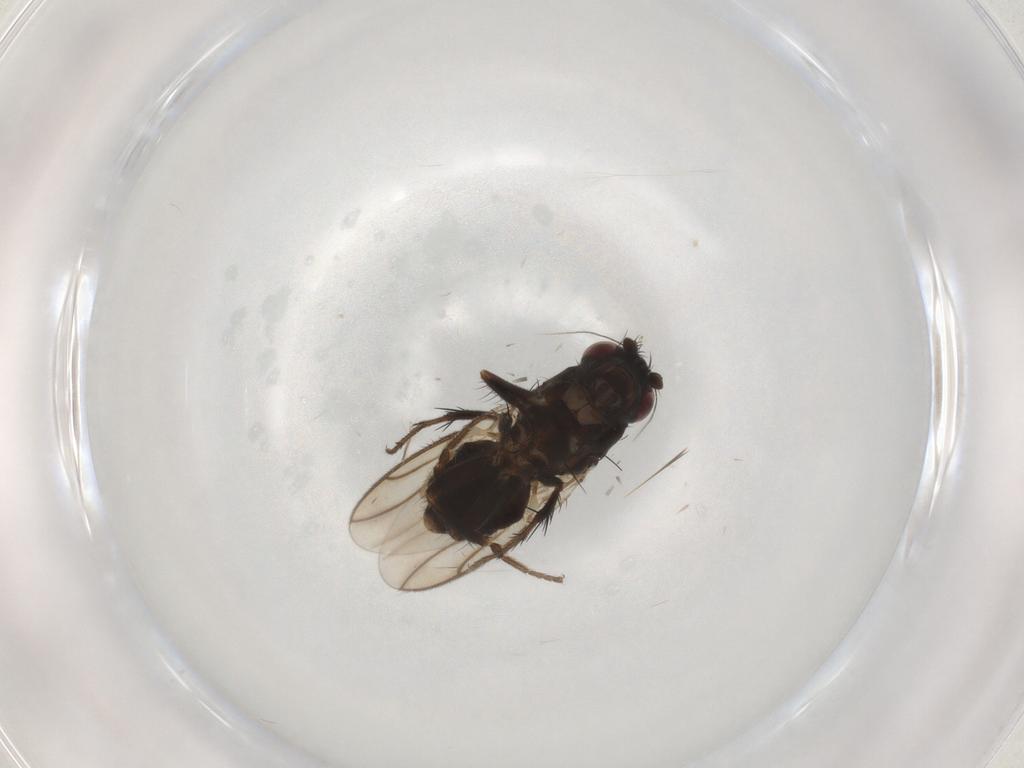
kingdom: Animalia
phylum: Arthropoda
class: Insecta
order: Diptera
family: Sphaeroceridae
